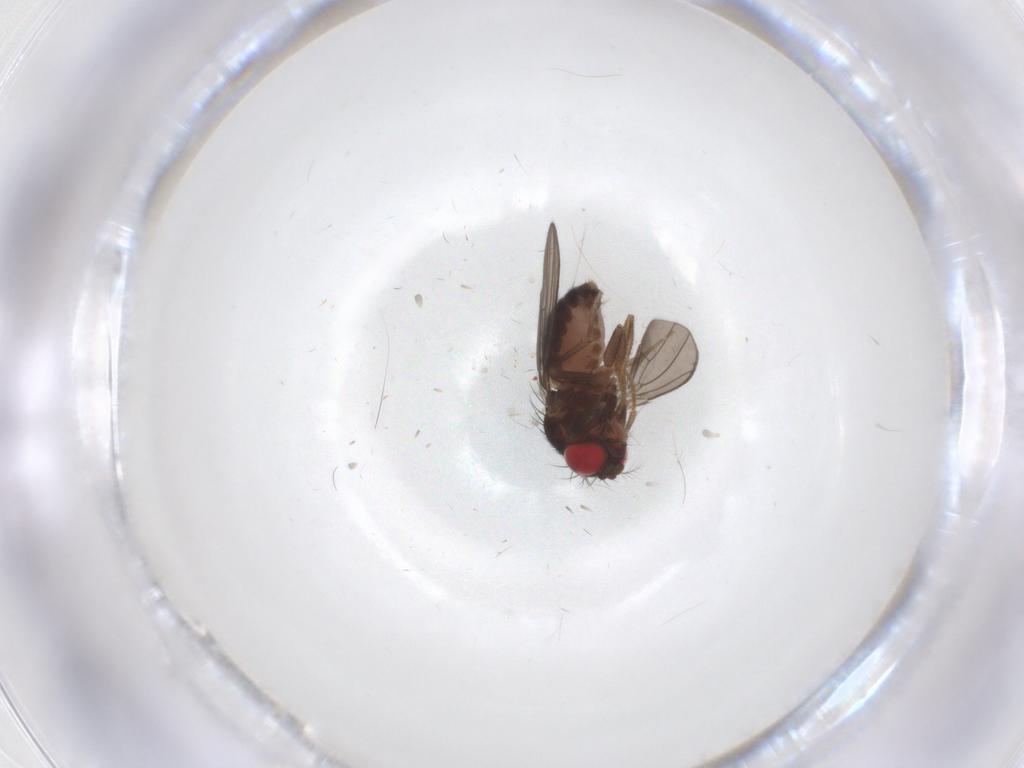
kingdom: Animalia
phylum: Arthropoda
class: Insecta
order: Diptera
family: Drosophilidae
